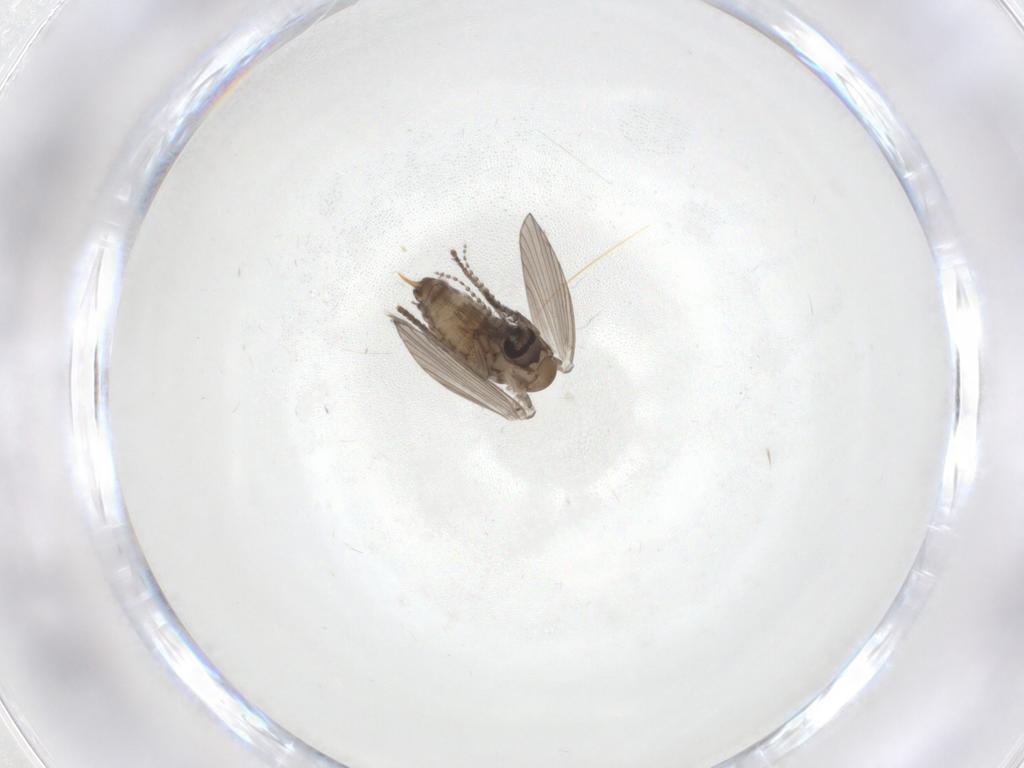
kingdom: Animalia
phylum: Arthropoda
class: Insecta
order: Diptera
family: Psychodidae
